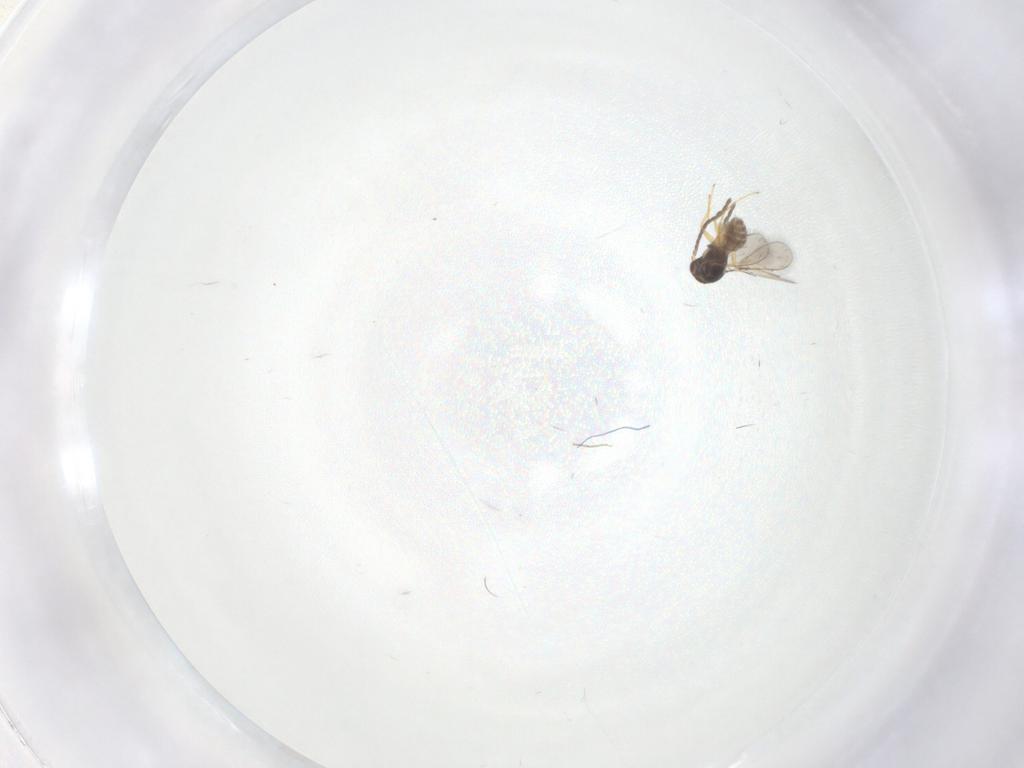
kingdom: Animalia
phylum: Arthropoda
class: Insecta
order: Hymenoptera
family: Mymaridae
